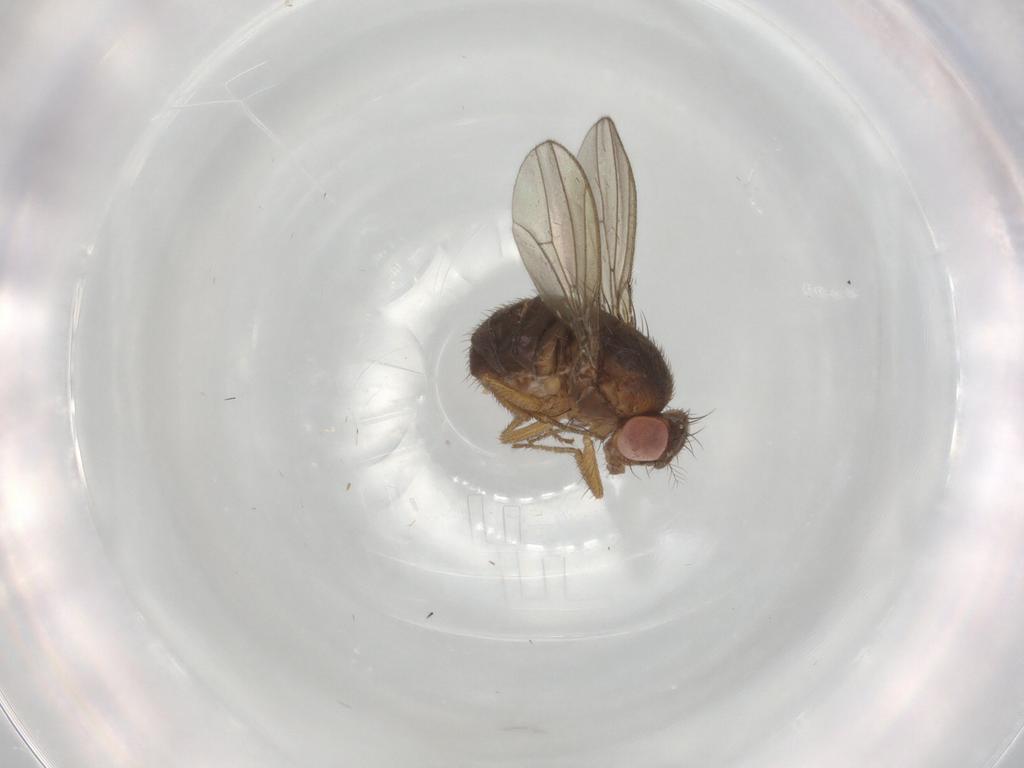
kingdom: Animalia
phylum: Arthropoda
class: Insecta
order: Diptera
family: Drosophilidae
